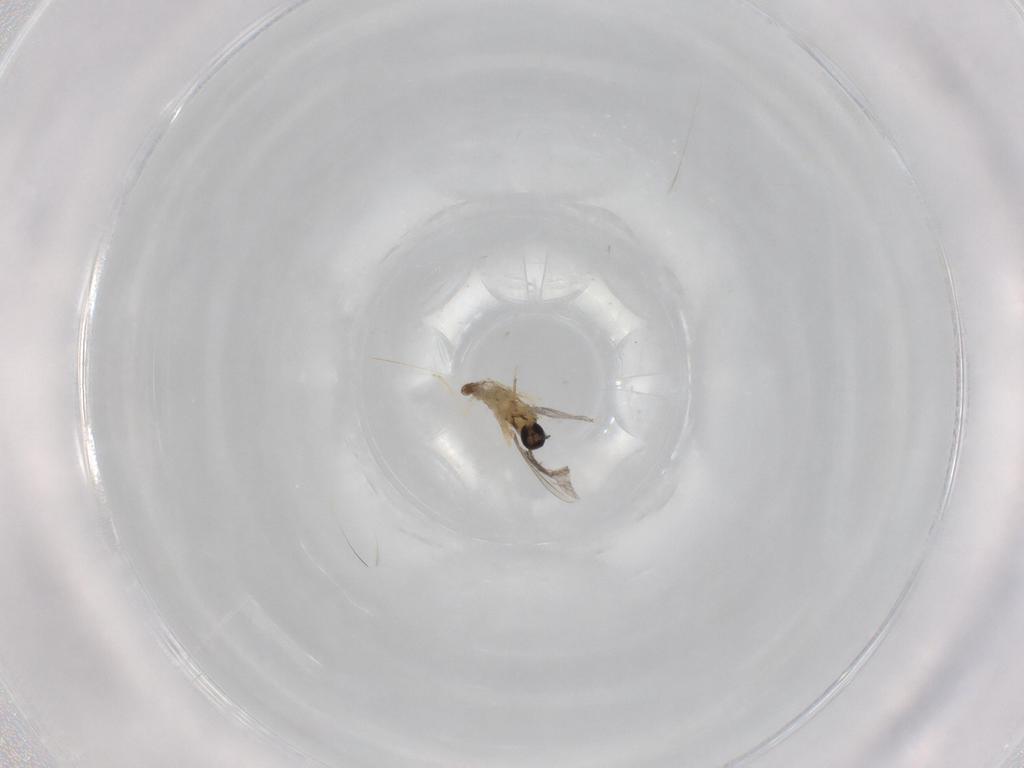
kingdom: Animalia
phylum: Arthropoda
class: Insecta
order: Diptera
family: Cecidomyiidae
